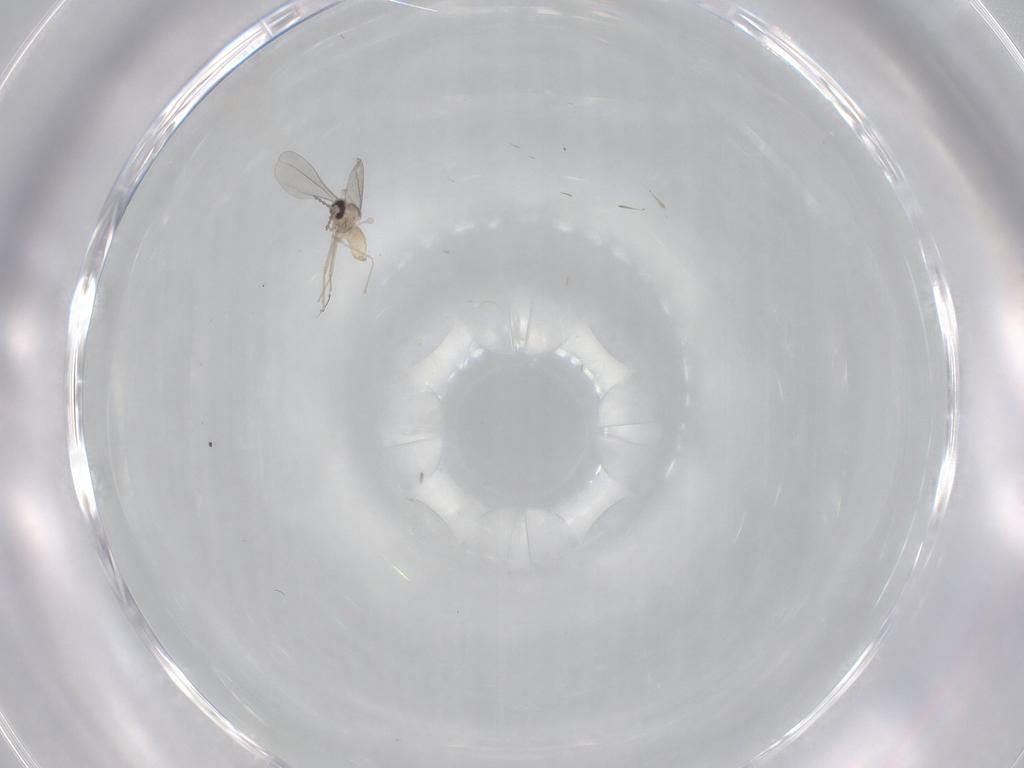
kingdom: Animalia
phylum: Arthropoda
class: Insecta
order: Diptera
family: Cecidomyiidae
